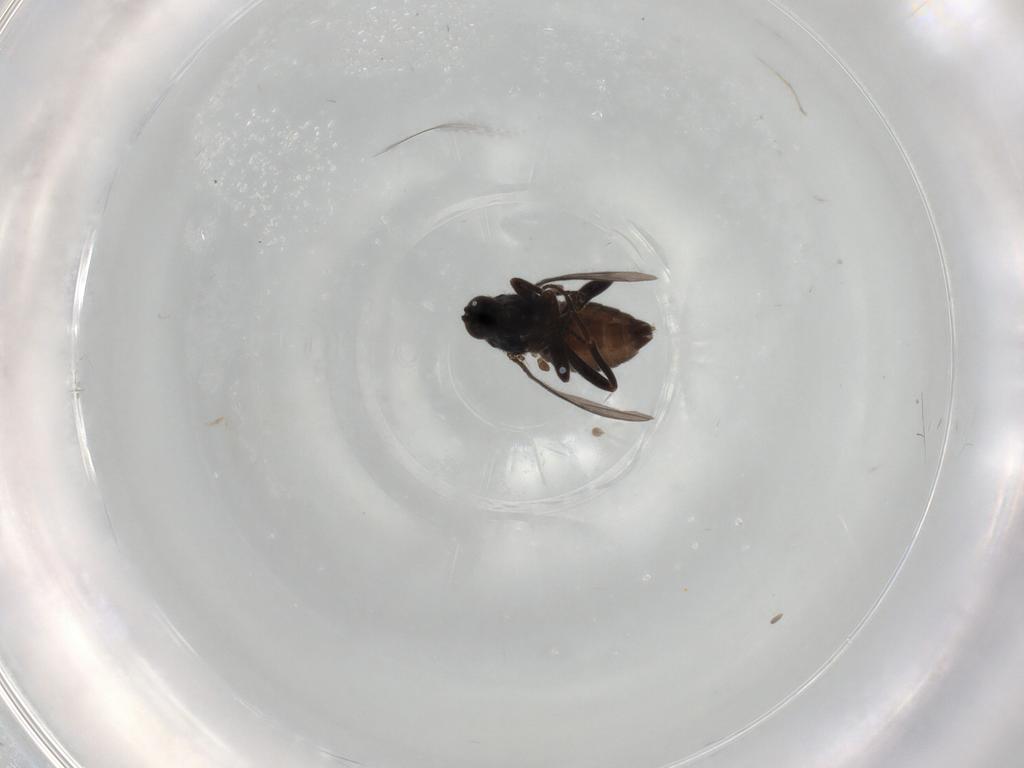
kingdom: Animalia
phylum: Arthropoda
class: Insecta
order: Diptera
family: Muscidae
